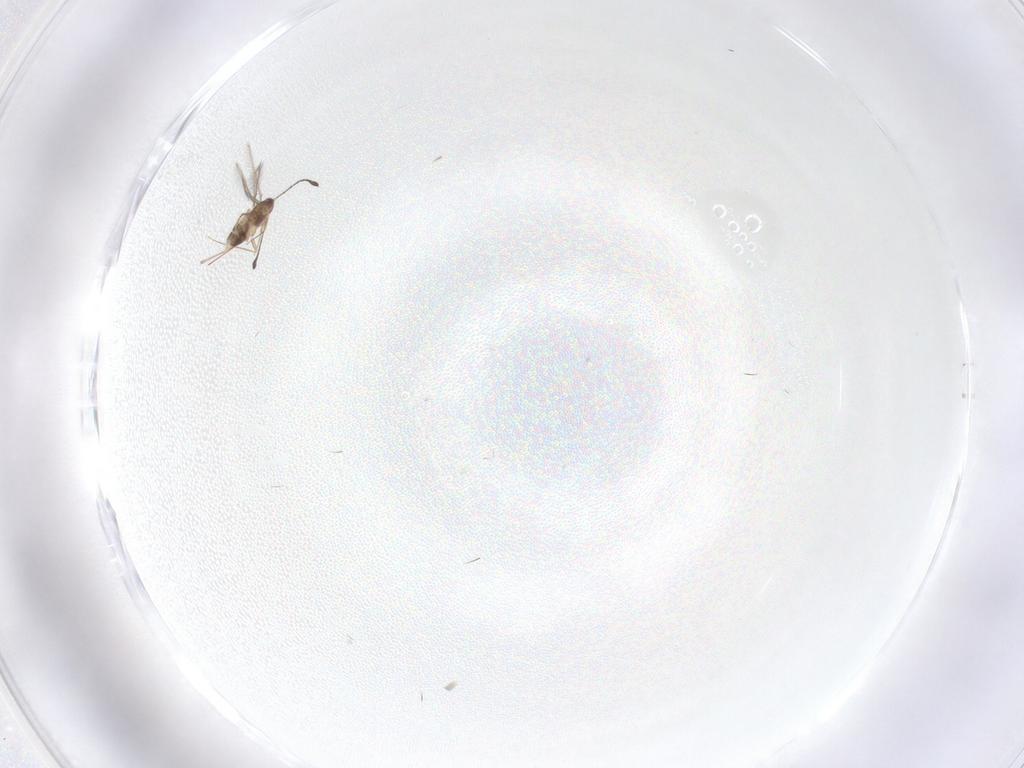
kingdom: Animalia
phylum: Arthropoda
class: Insecta
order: Hymenoptera
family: Mymaridae
